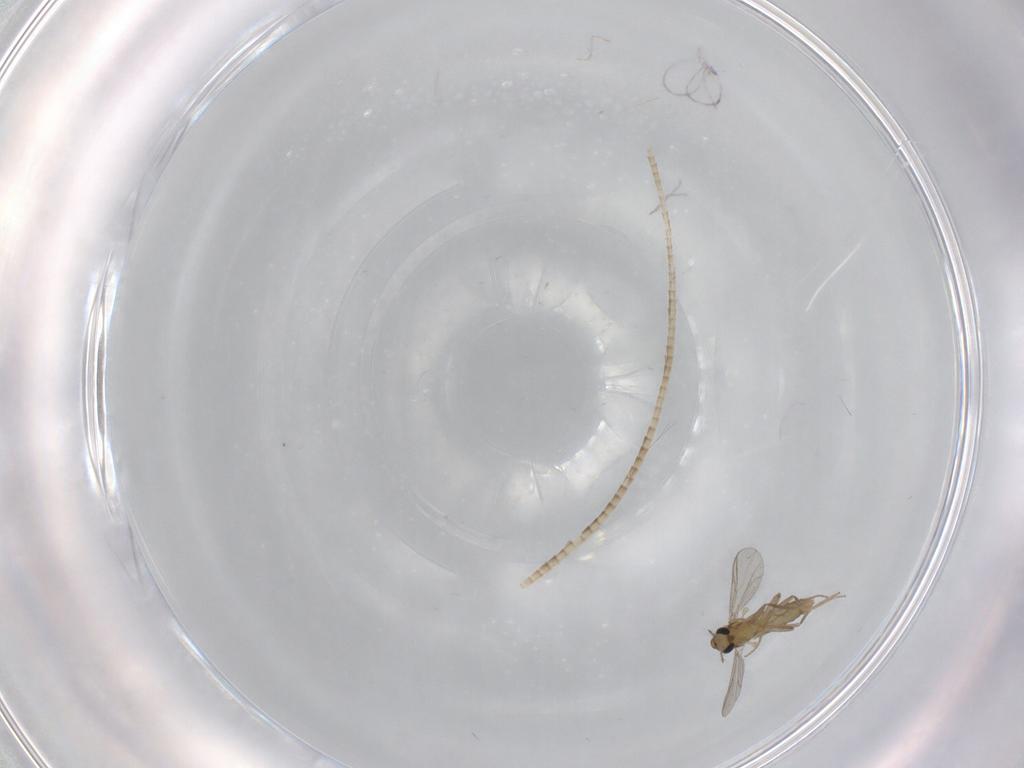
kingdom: Animalia
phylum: Arthropoda
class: Insecta
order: Diptera
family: Chironomidae
